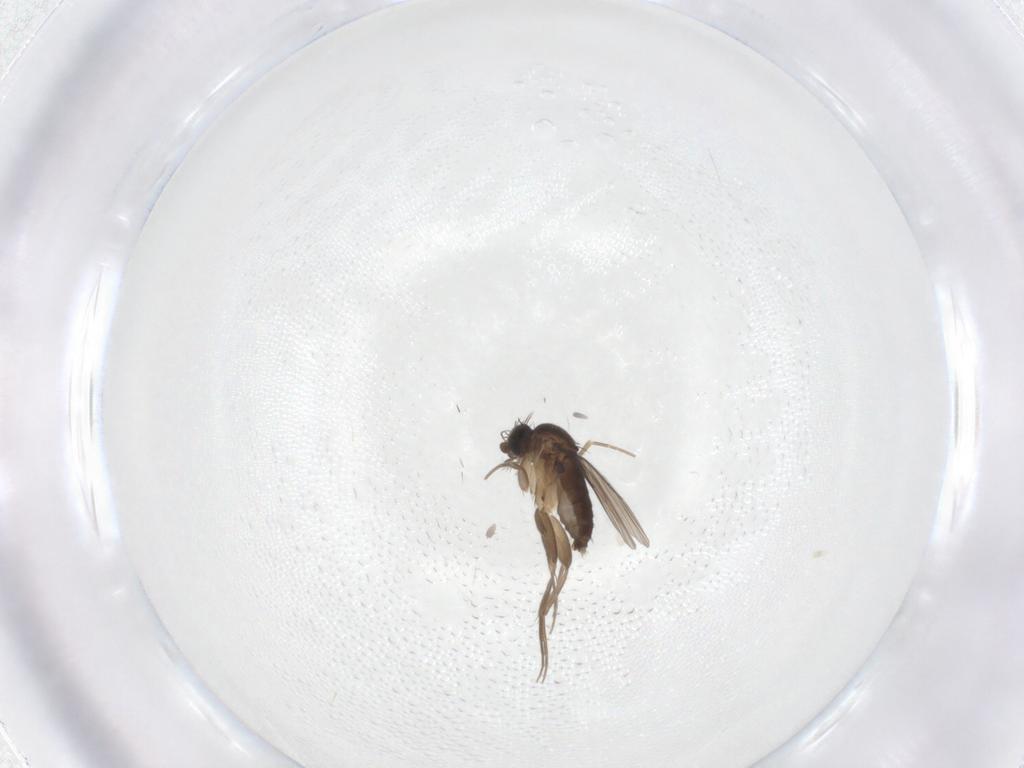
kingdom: Animalia
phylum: Arthropoda
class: Insecta
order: Diptera
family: Phoridae
